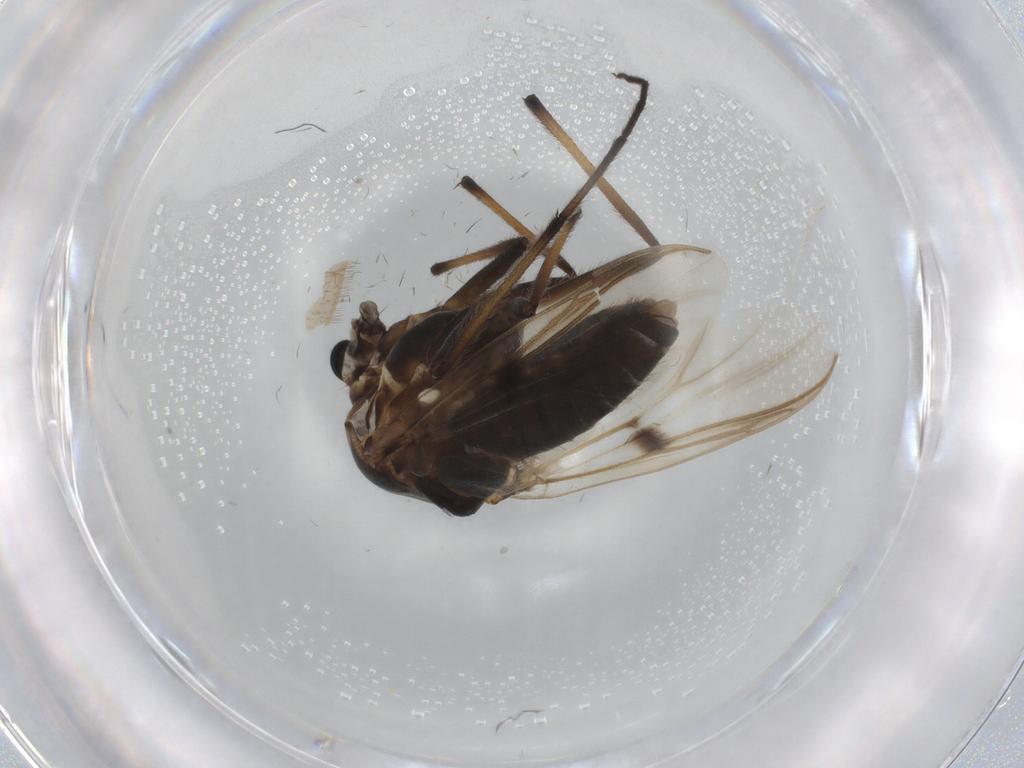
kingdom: Animalia
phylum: Arthropoda
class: Insecta
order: Diptera
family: Chironomidae
